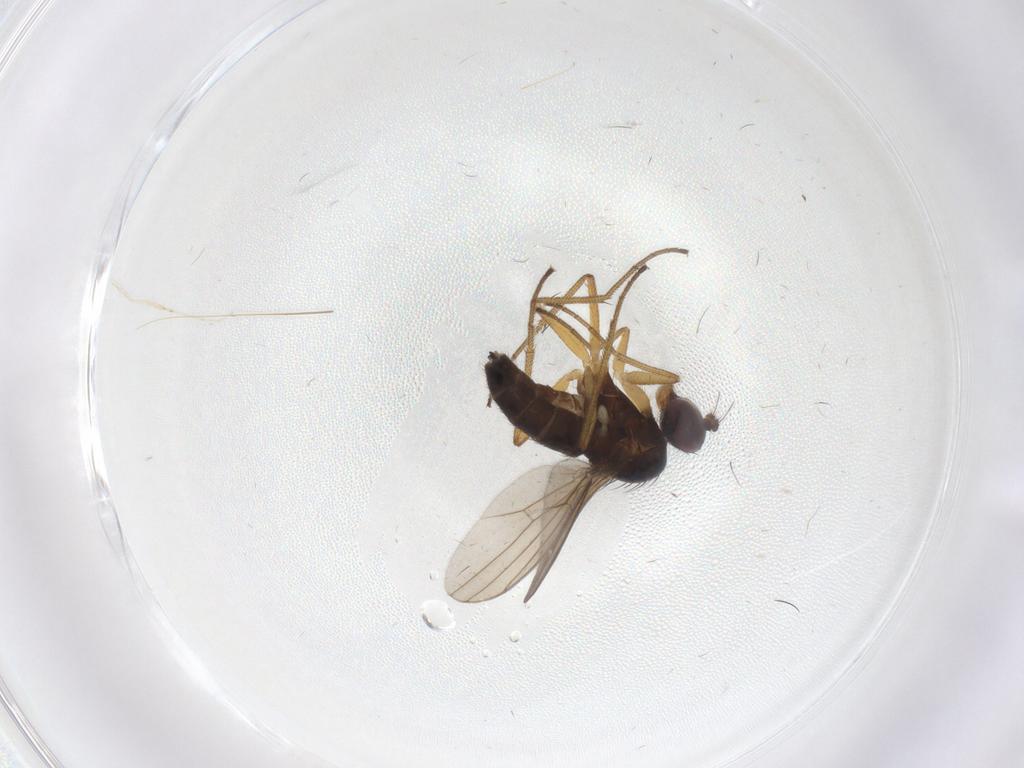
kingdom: Animalia
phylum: Arthropoda
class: Insecta
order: Diptera
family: Dolichopodidae
